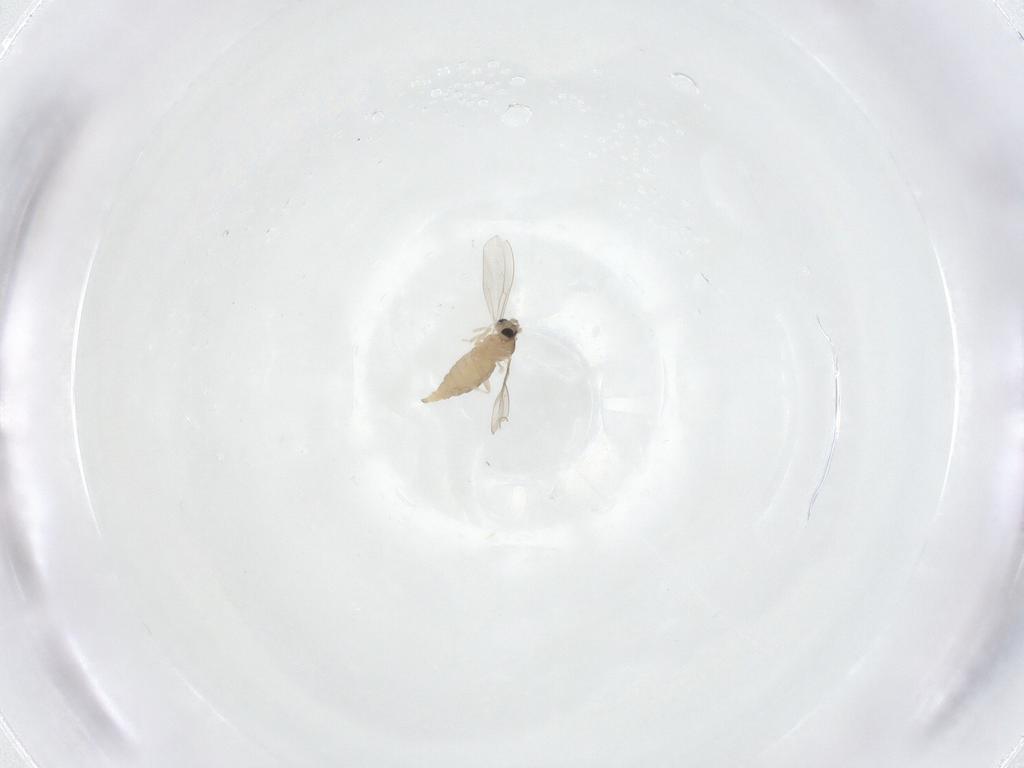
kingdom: Animalia
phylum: Arthropoda
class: Insecta
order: Diptera
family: Cecidomyiidae
